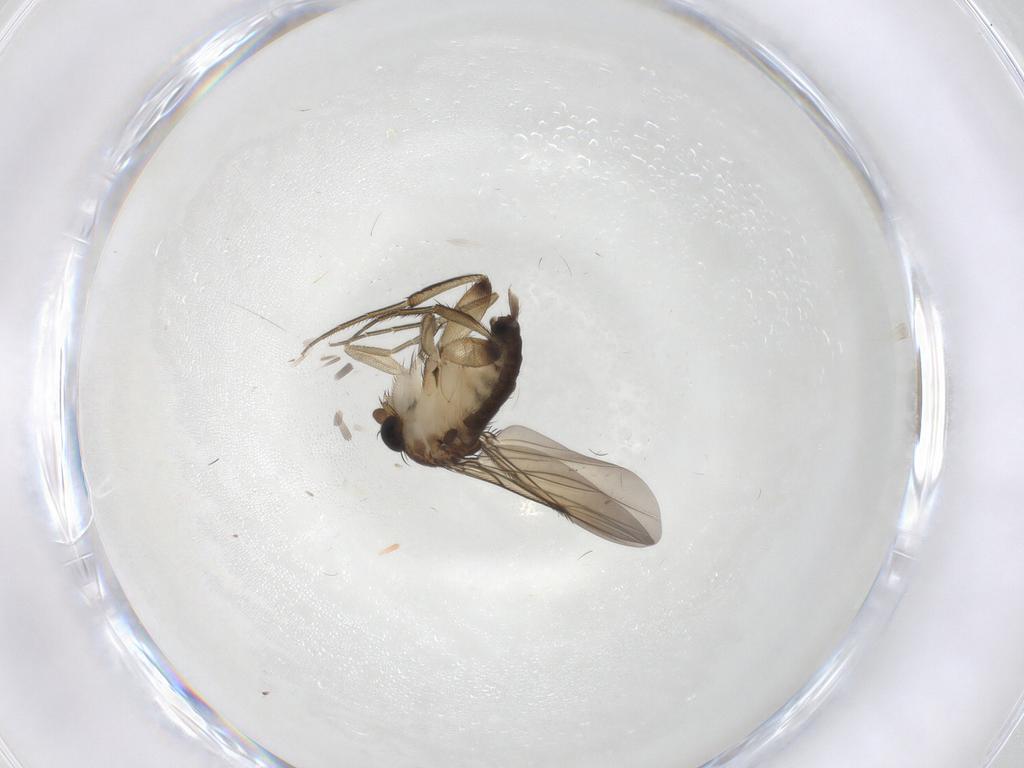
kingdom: Animalia
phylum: Arthropoda
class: Insecta
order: Diptera
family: Phoridae
